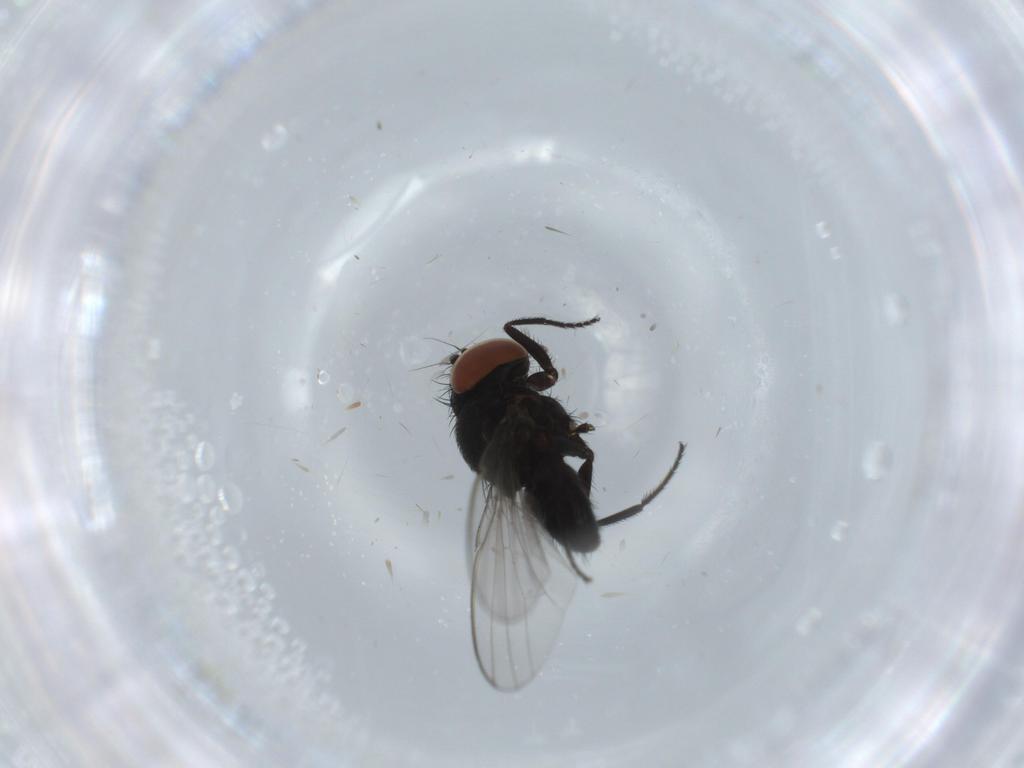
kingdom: Animalia
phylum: Arthropoda
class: Insecta
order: Diptera
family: Milichiidae
